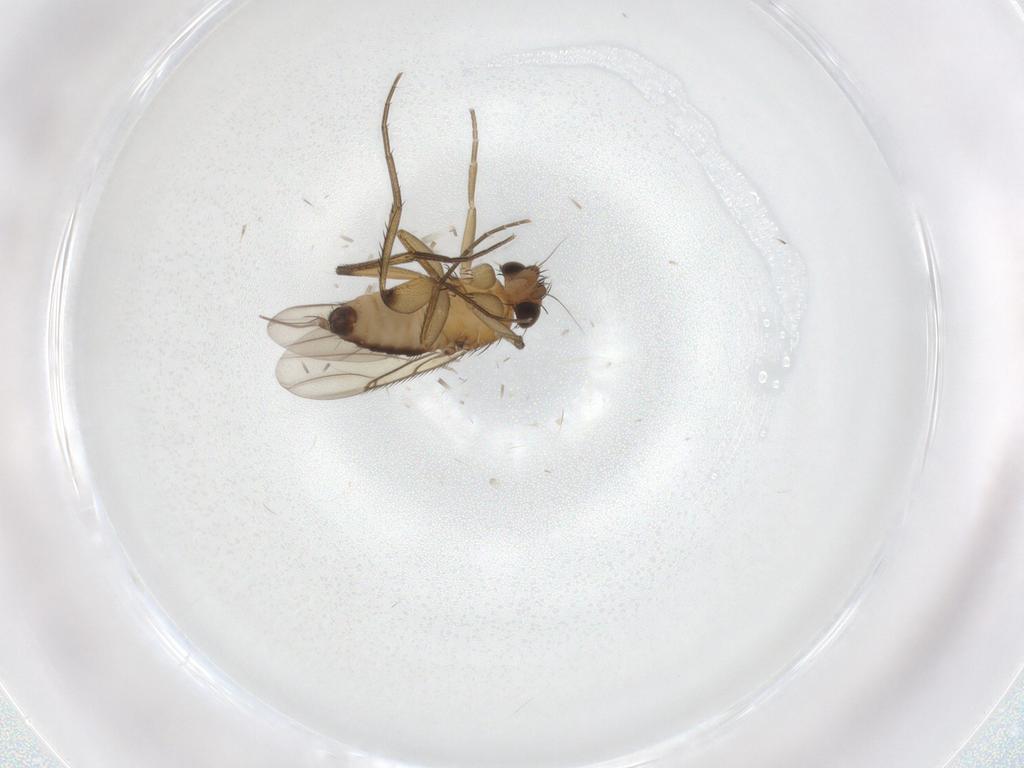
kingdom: Animalia
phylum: Arthropoda
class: Insecta
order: Diptera
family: Phoridae
